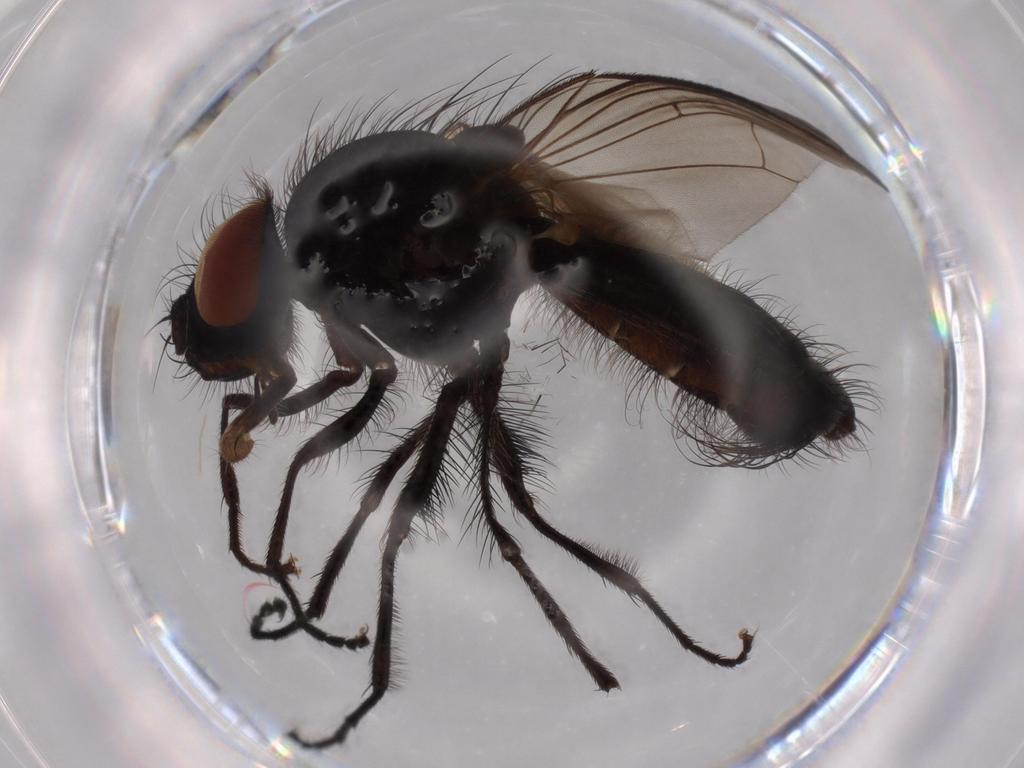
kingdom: Animalia
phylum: Arthropoda
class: Insecta
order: Diptera
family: Fannia
